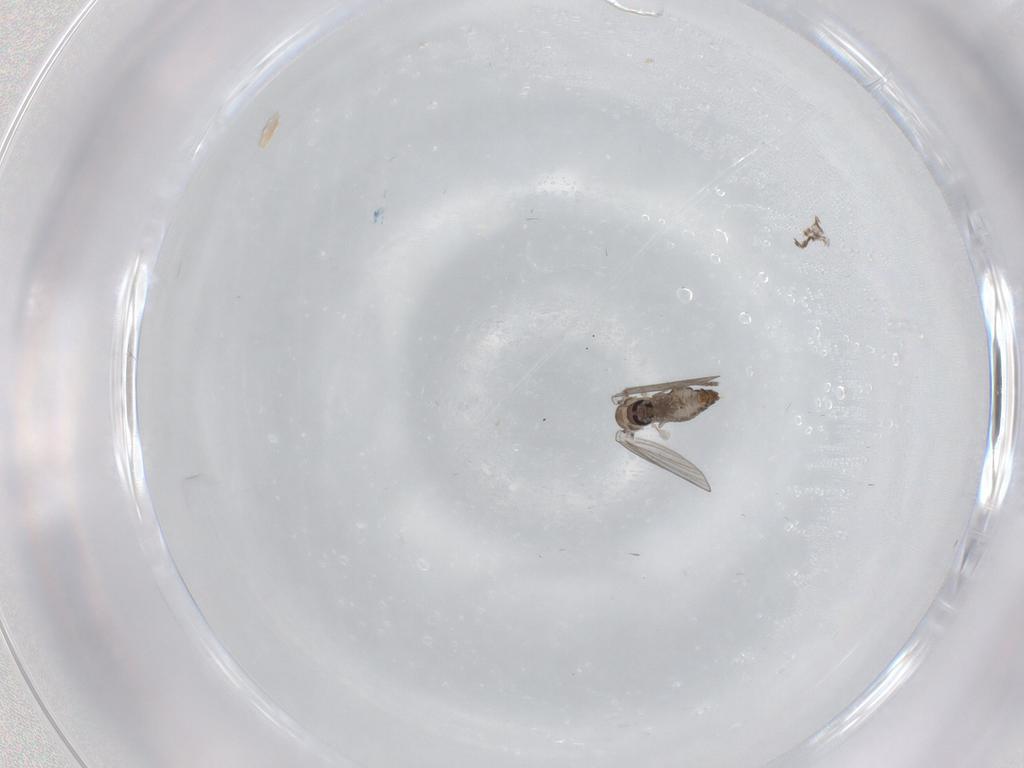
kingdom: Animalia
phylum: Arthropoda
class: Insecta
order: Diptera
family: Psychodidae
